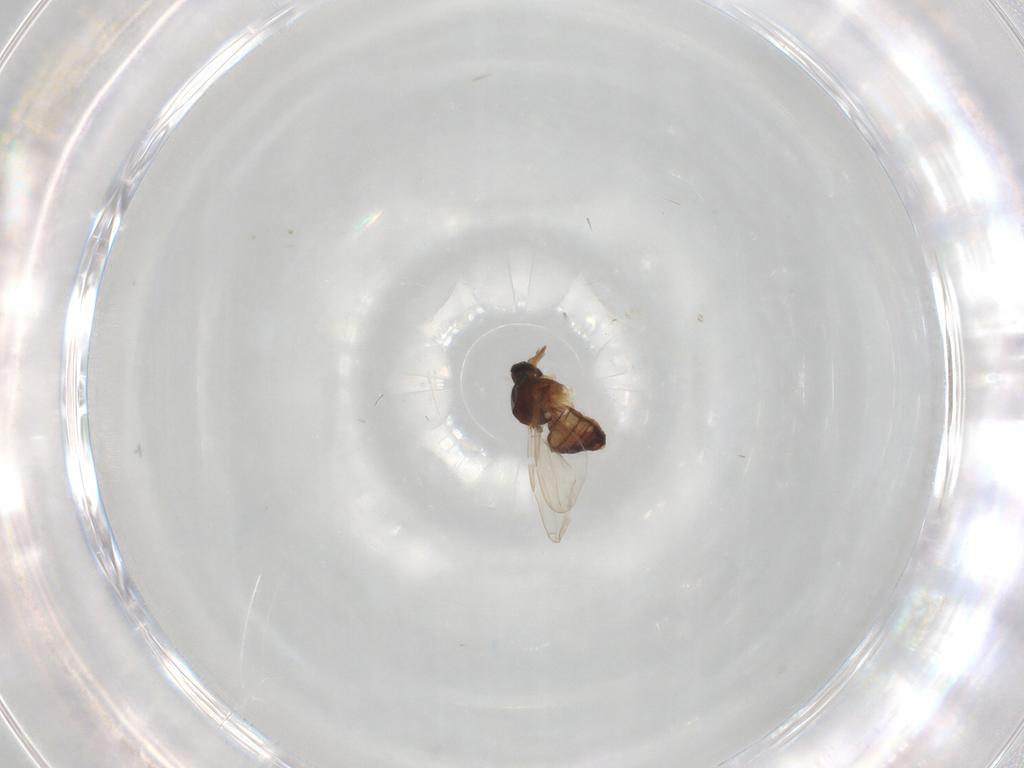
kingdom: Animalia
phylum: Arthropoda
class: Insecta
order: Diptera
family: Ceratopogonidae
